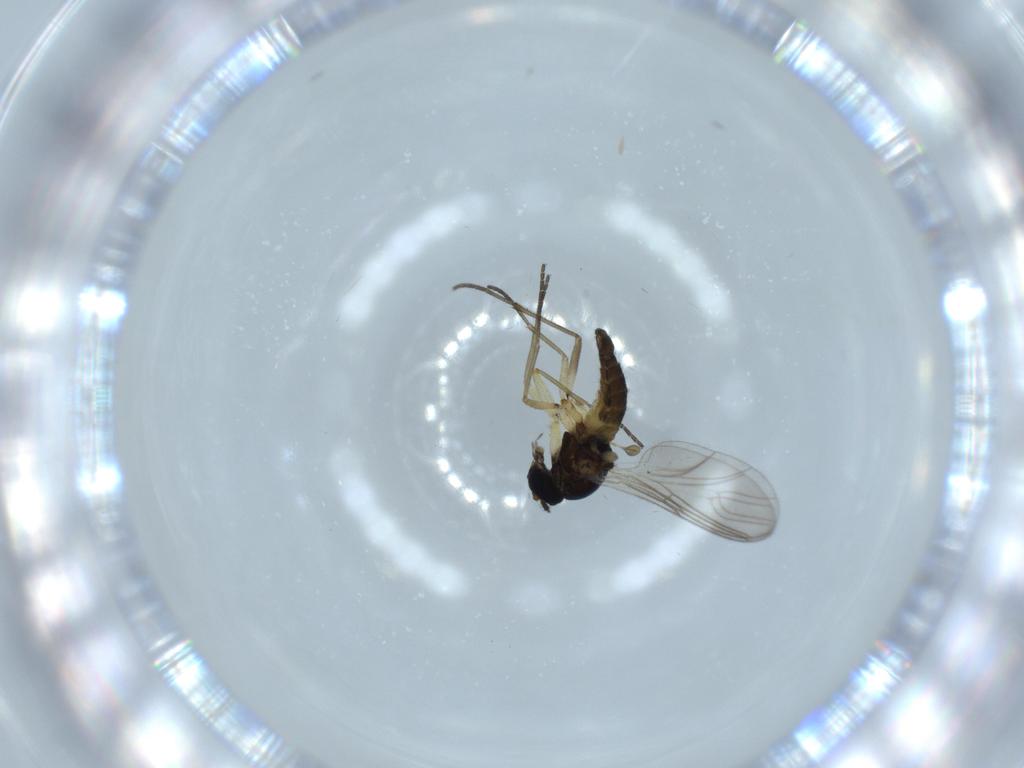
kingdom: Animalia
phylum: Arthropoda
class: Insecta
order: Diptera
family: Sciaridae
